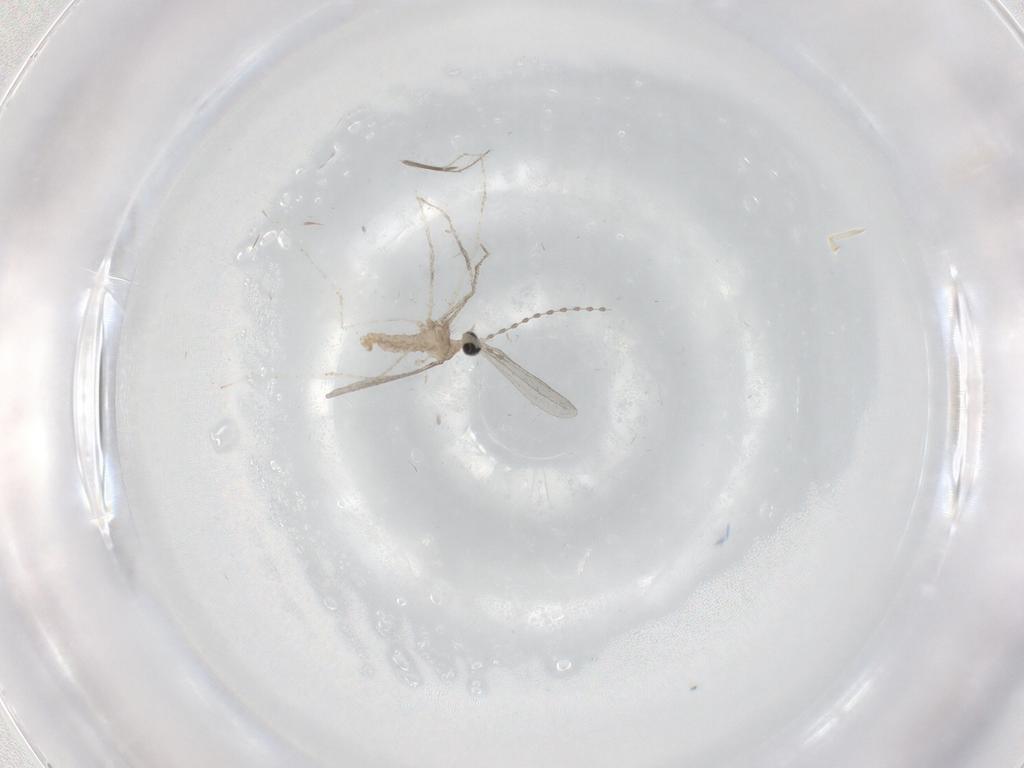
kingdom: Animalia
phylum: Arthropoda
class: Insecta
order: Diptera
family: Cecidomyiidae
